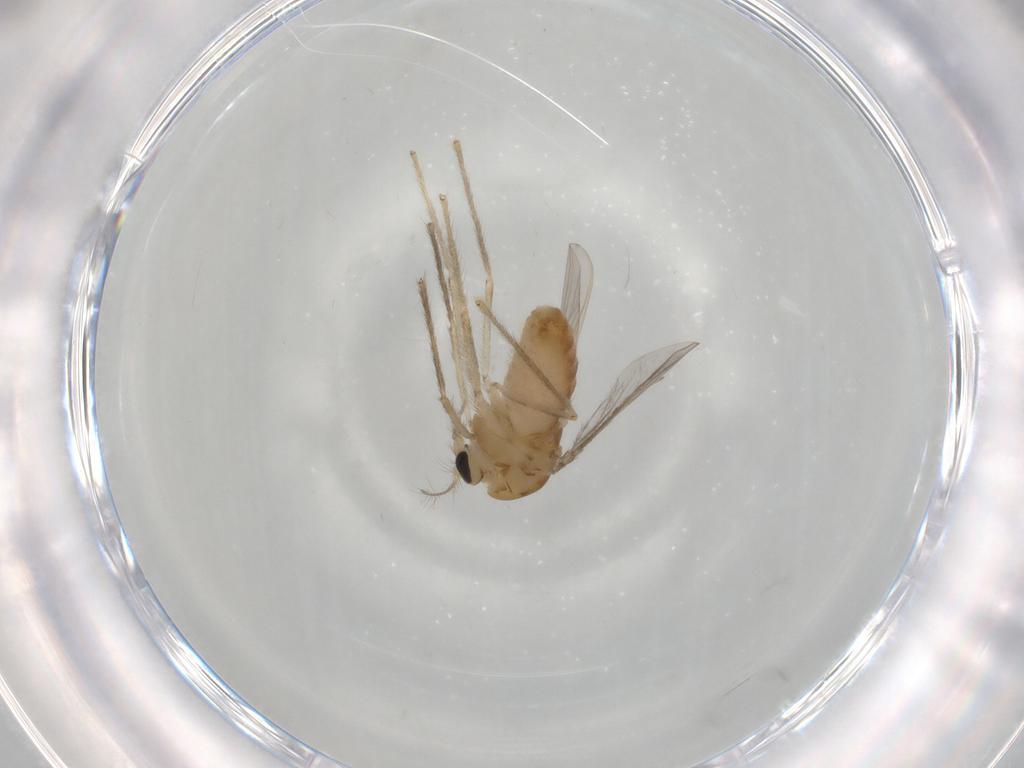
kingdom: Animalia
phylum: Arthropoda
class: Insecta
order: Diptera
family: Chironomidae
